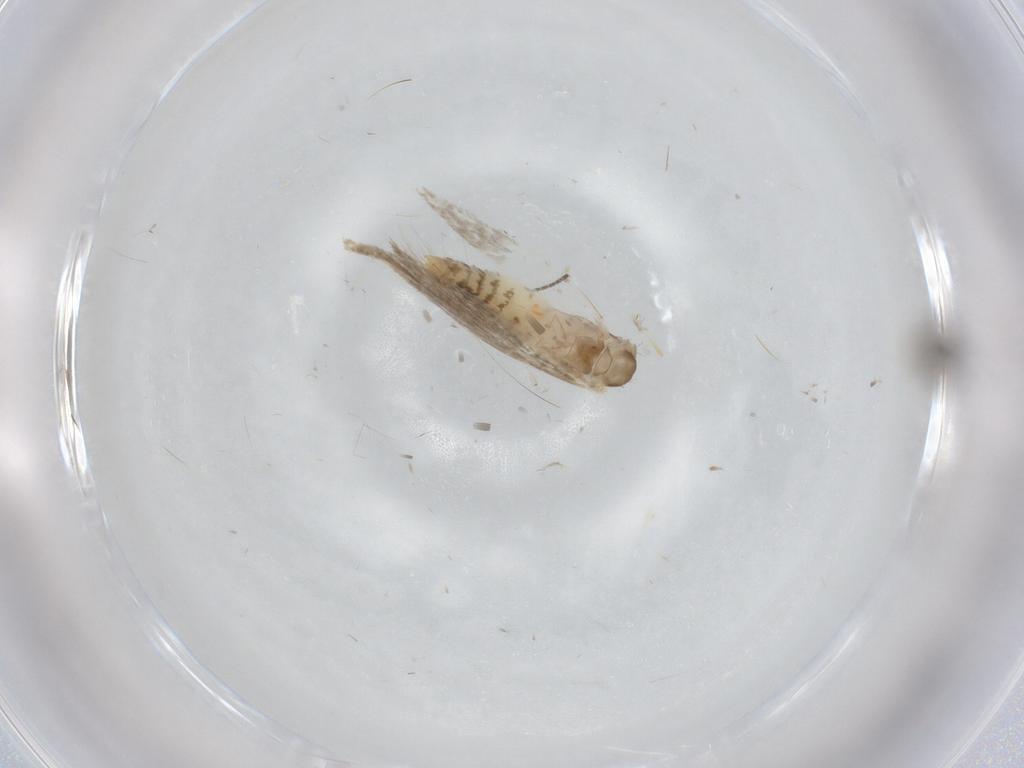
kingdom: Animalia
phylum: Arthropoda
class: Insecta
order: Lepidoptera
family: Tineidae
